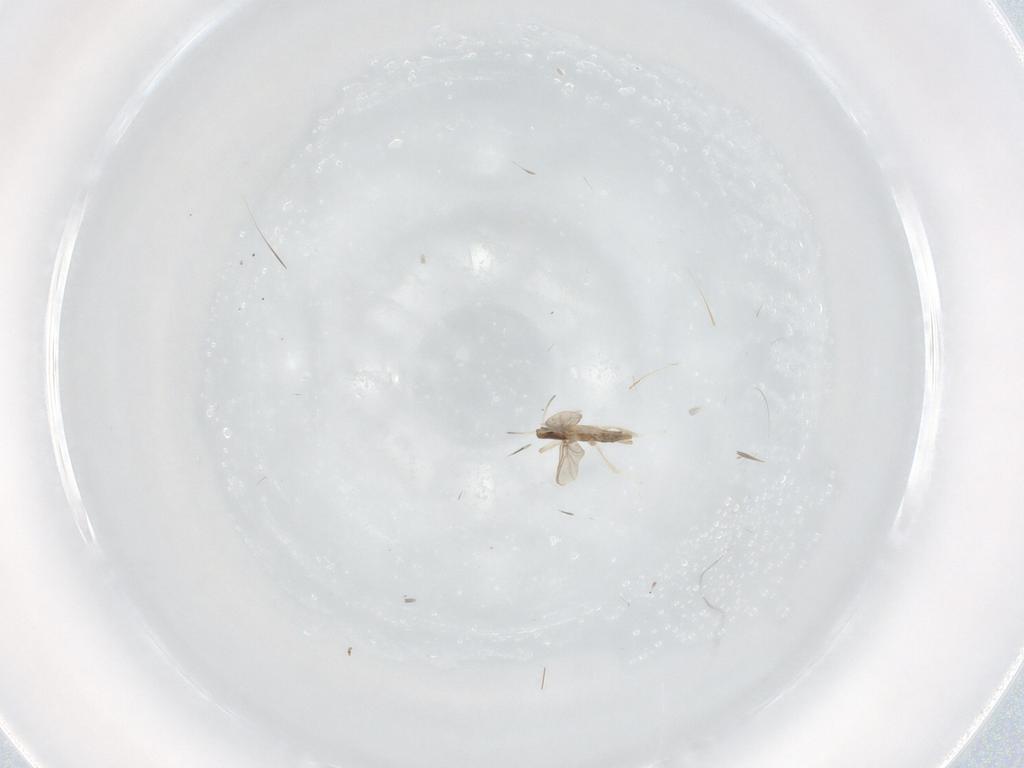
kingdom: Animalia
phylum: Arthropoda
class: Insecta
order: Diptera
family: Chironomidae
